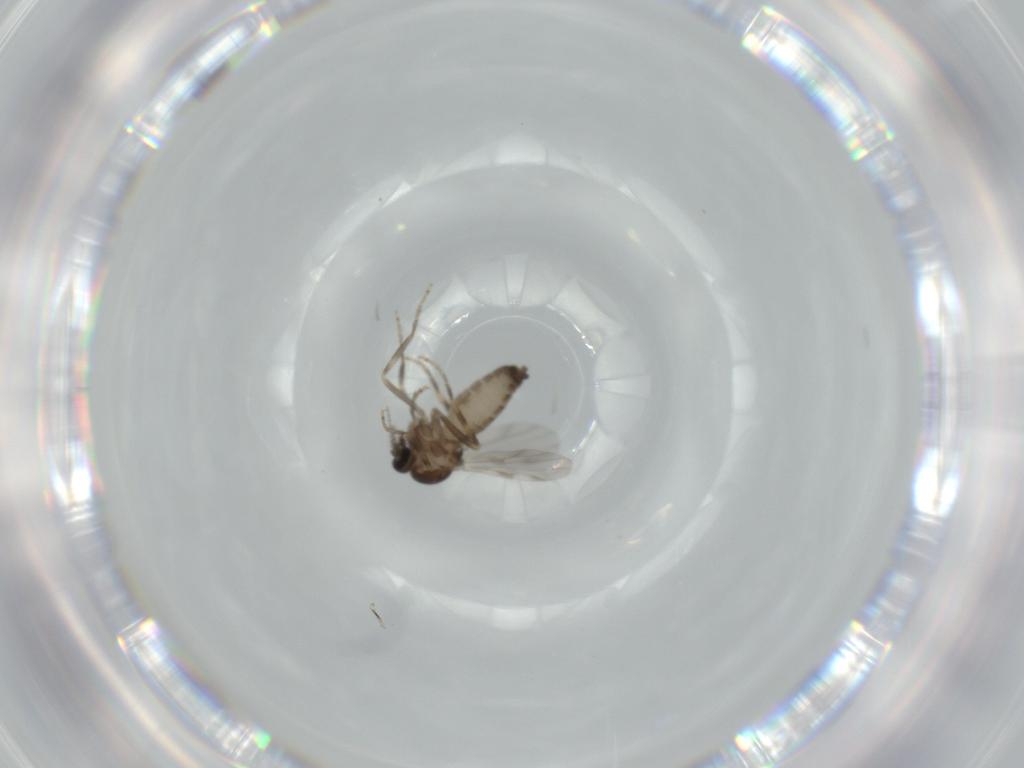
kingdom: Animalia
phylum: Arthropoda
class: Insecta
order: Diptera
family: Ceratopogonidae
